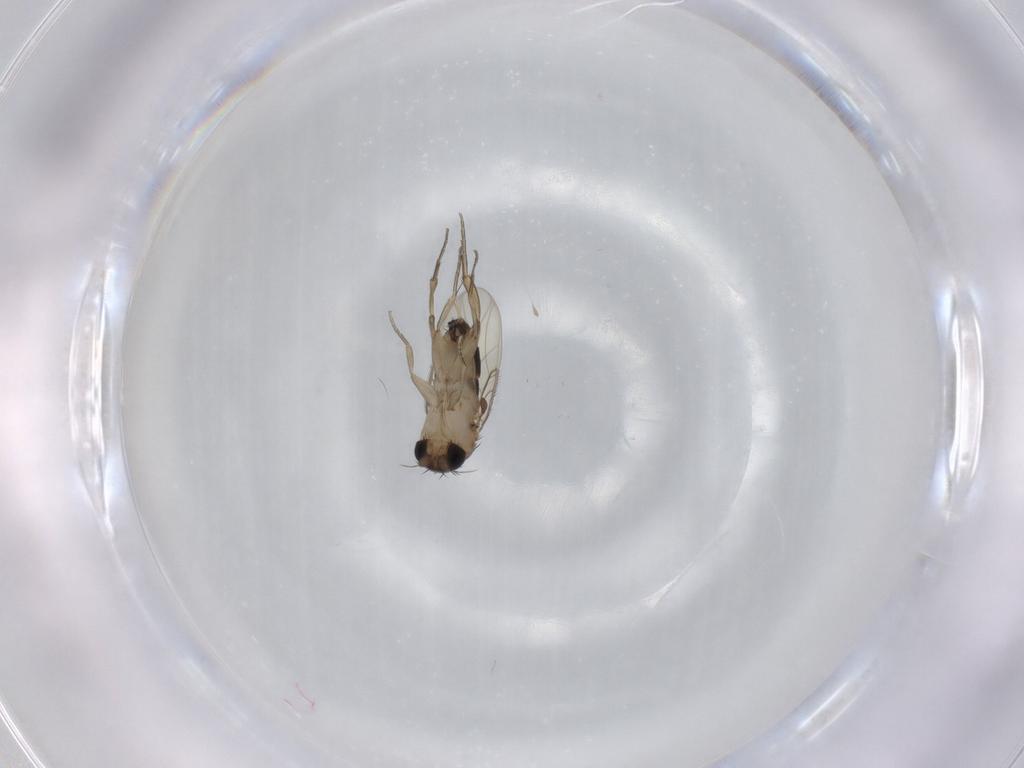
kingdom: Animalia
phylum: Arthropoda
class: Insecta
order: Diptera
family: Phoridae
